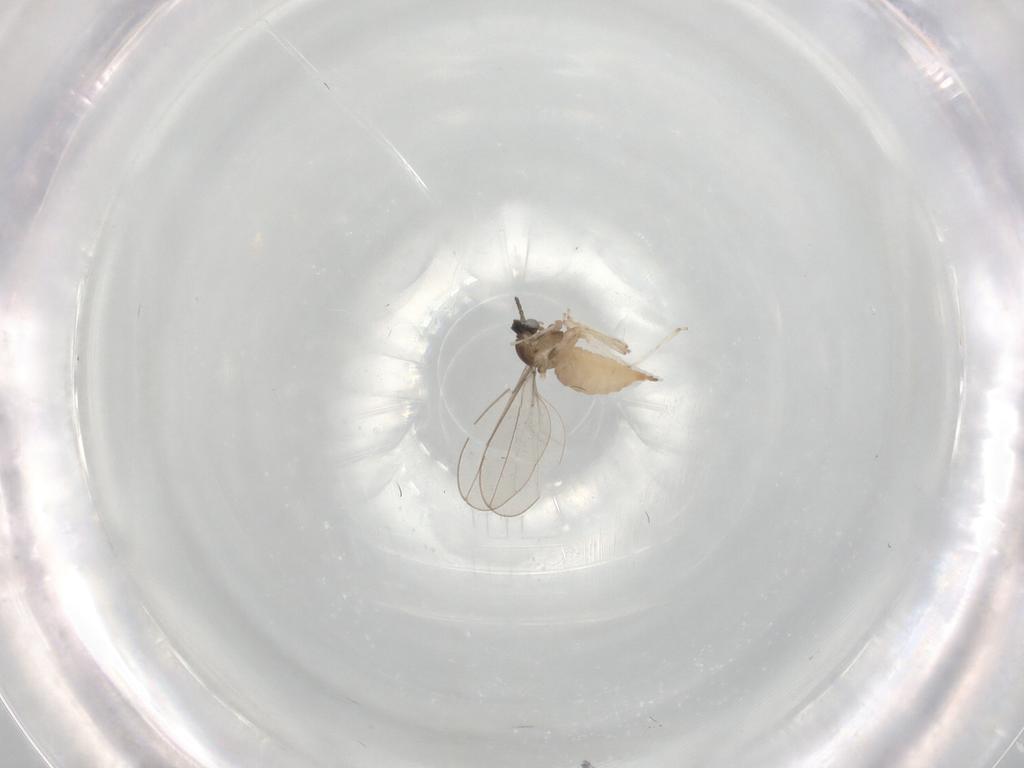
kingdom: Animalia
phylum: Arthropoda
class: Insecta
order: Diptera
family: Cecidomyiidae
